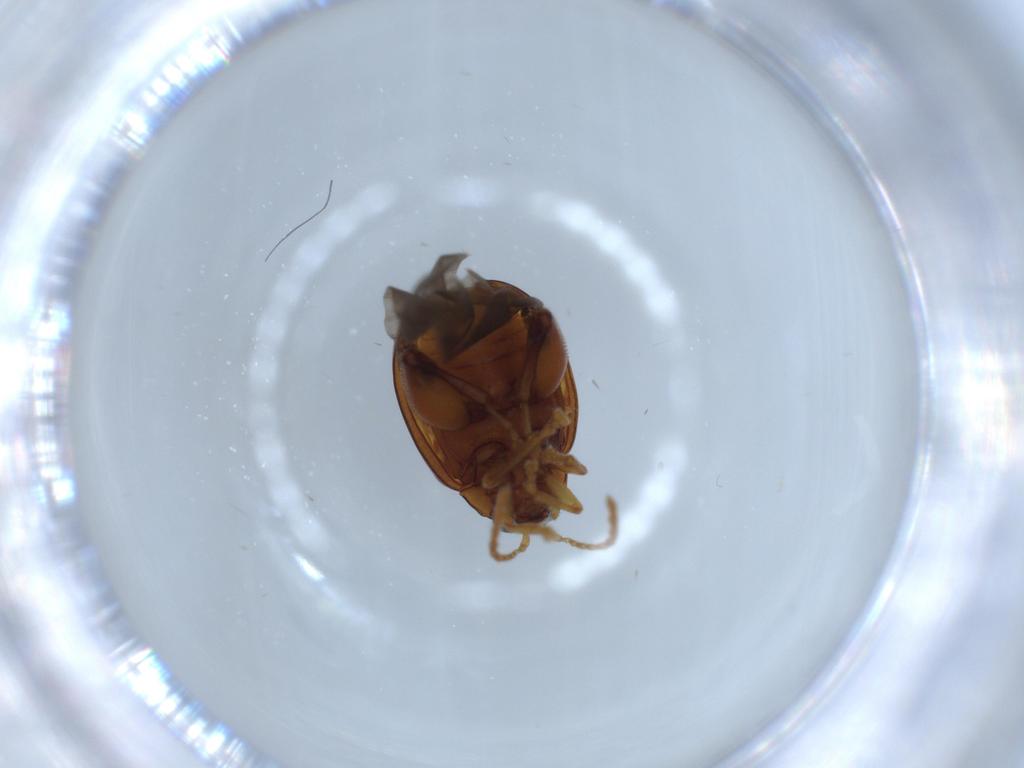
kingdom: Animalia
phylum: Arthropoda
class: Insecta
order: Coleoptera
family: Chrysomelidae
